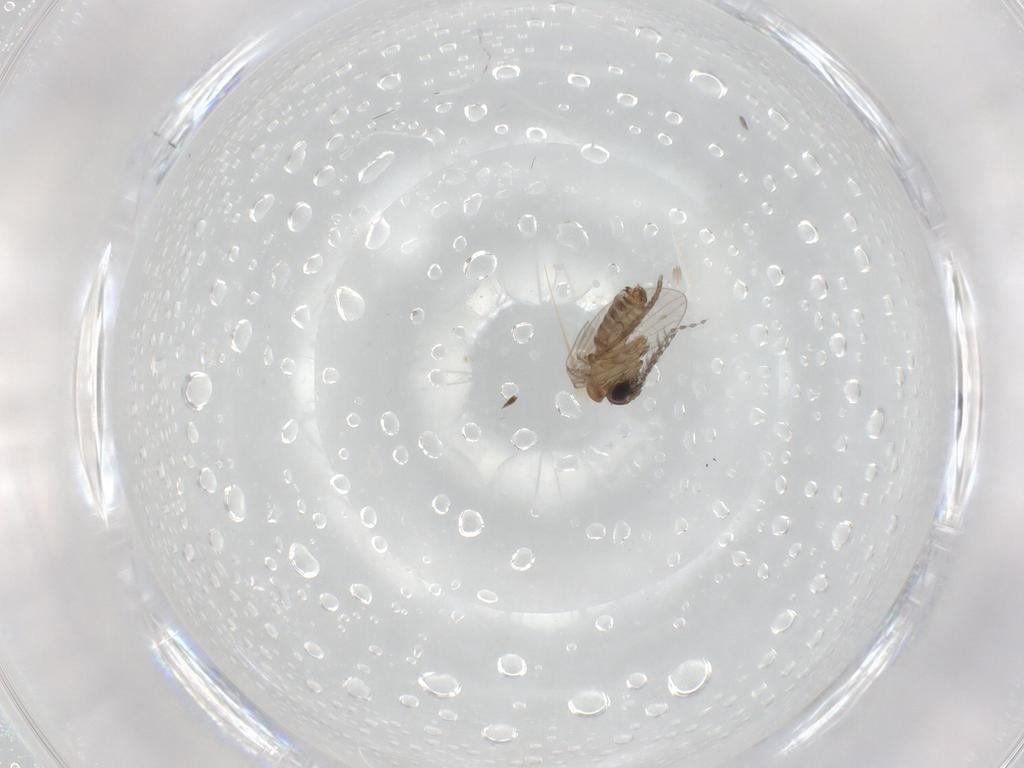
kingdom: Animalia
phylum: Arthropoda
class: Insecta
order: Diptera
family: Psychodidae
